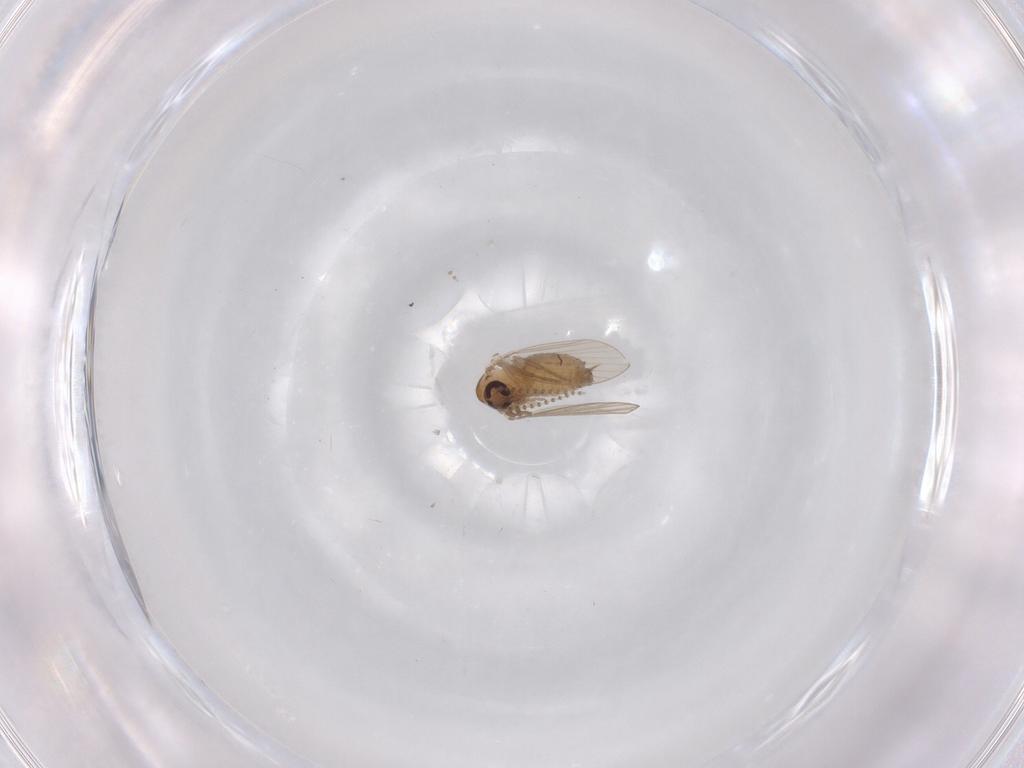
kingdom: Animalia
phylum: Arthropoda
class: Insecta
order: Diptera
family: Psychodidae
